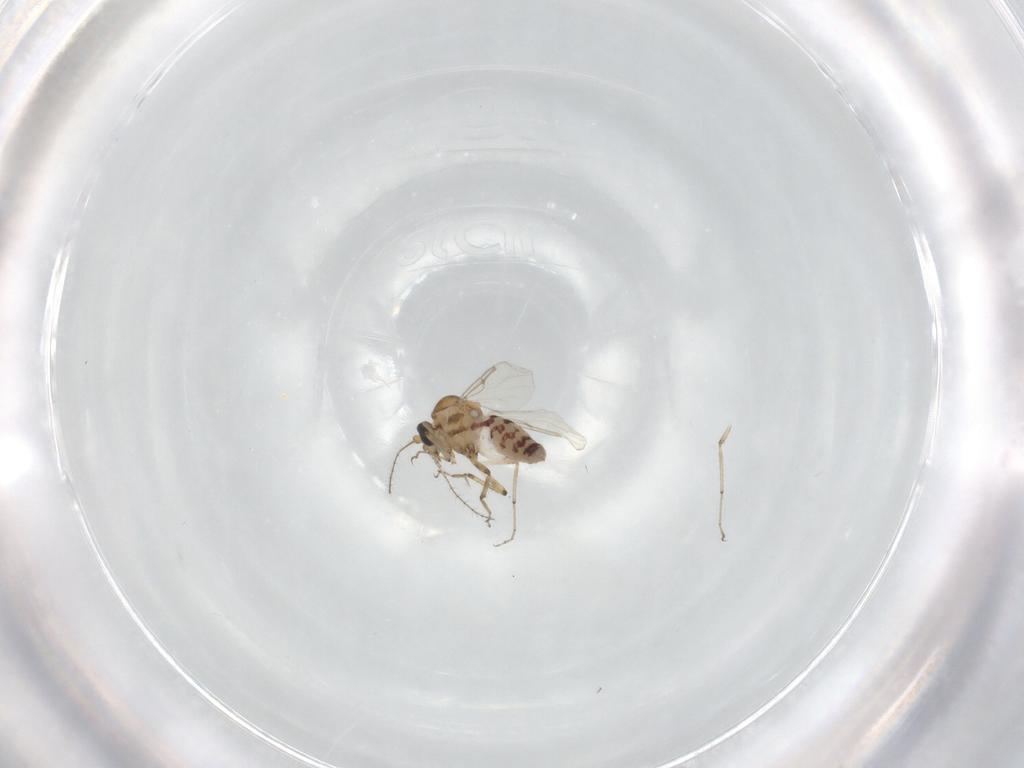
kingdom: Animalia
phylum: Arthropoda
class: Insecta
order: Diptera
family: Ceratopogonidae
